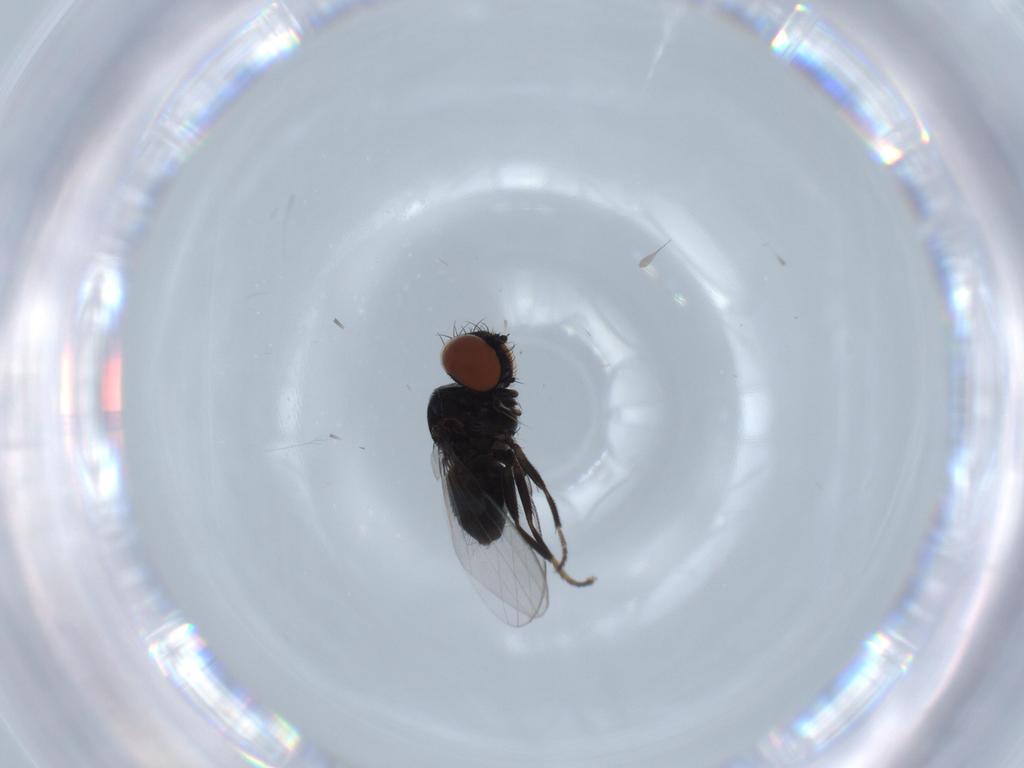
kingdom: Animalia
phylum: Arthropoda
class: Insecta
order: Diptera
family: Milichiidae
